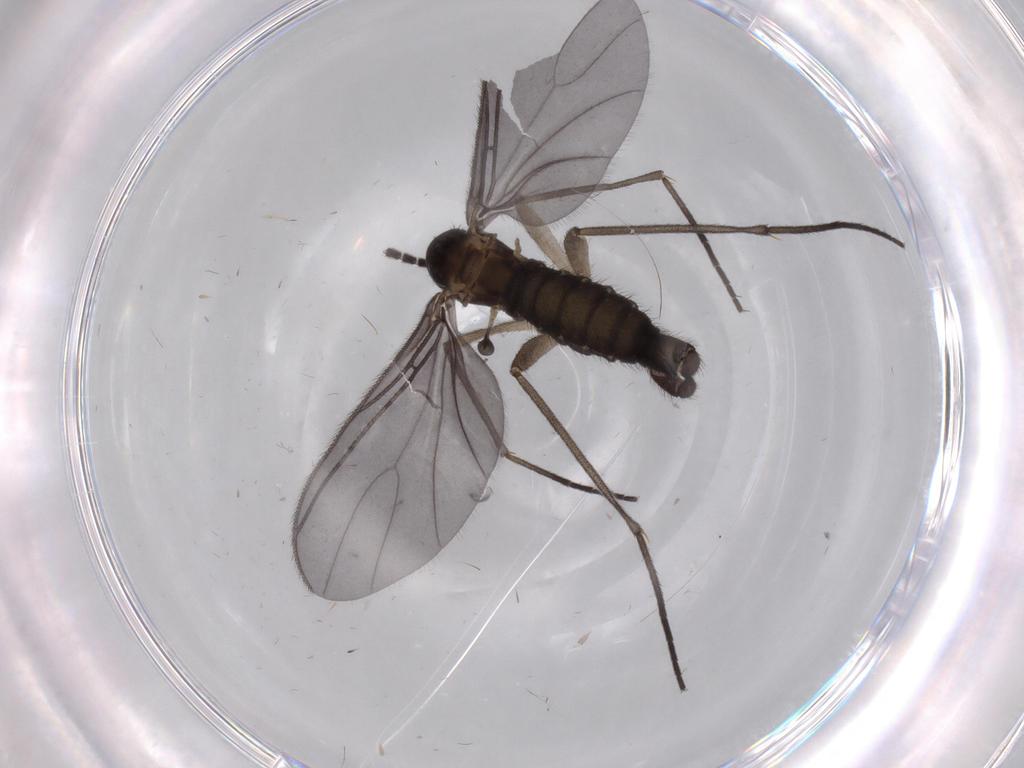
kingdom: Animalia
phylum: Arthropoda
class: Insecta
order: Diptera
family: Sciaridae
